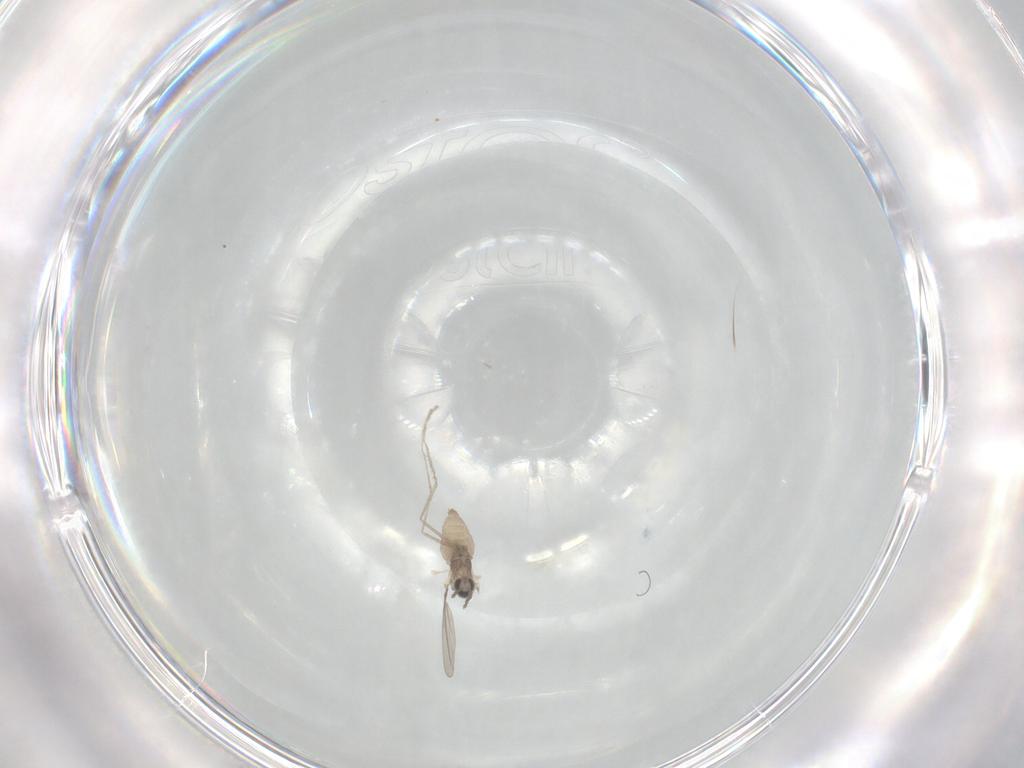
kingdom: Animalia
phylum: Arthropoda
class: Insecta
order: Diptera
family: Cecidomyiidae
